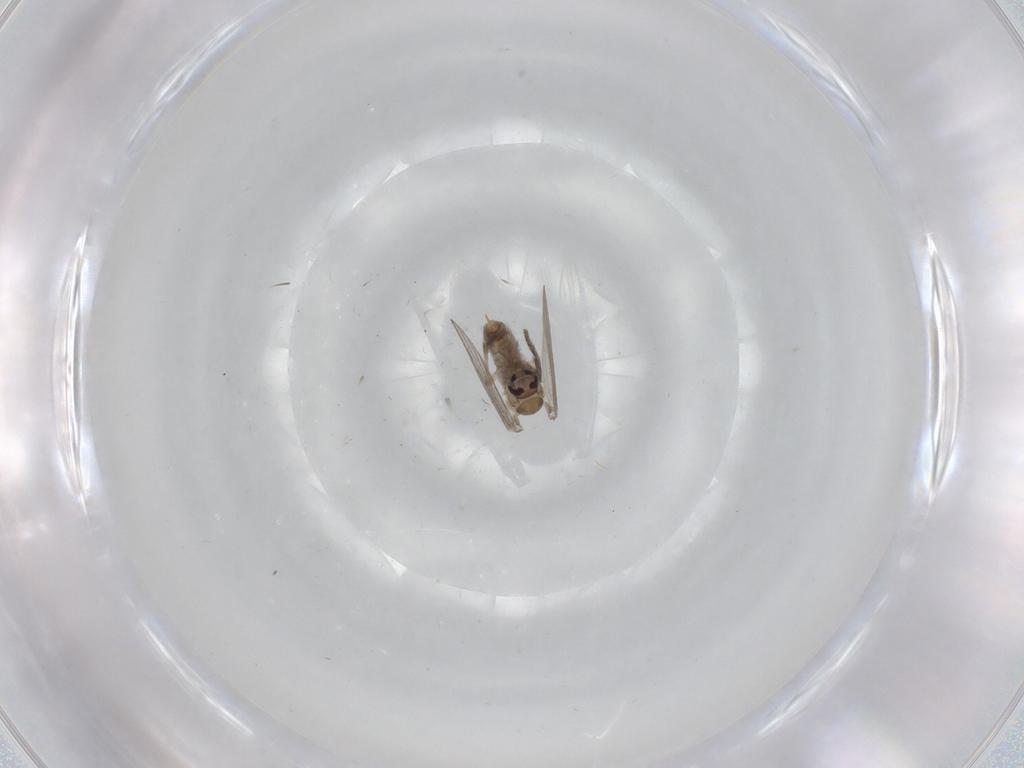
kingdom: Animalia
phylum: Arthropoda
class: Insecta
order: Diptera
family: Psychodidae
